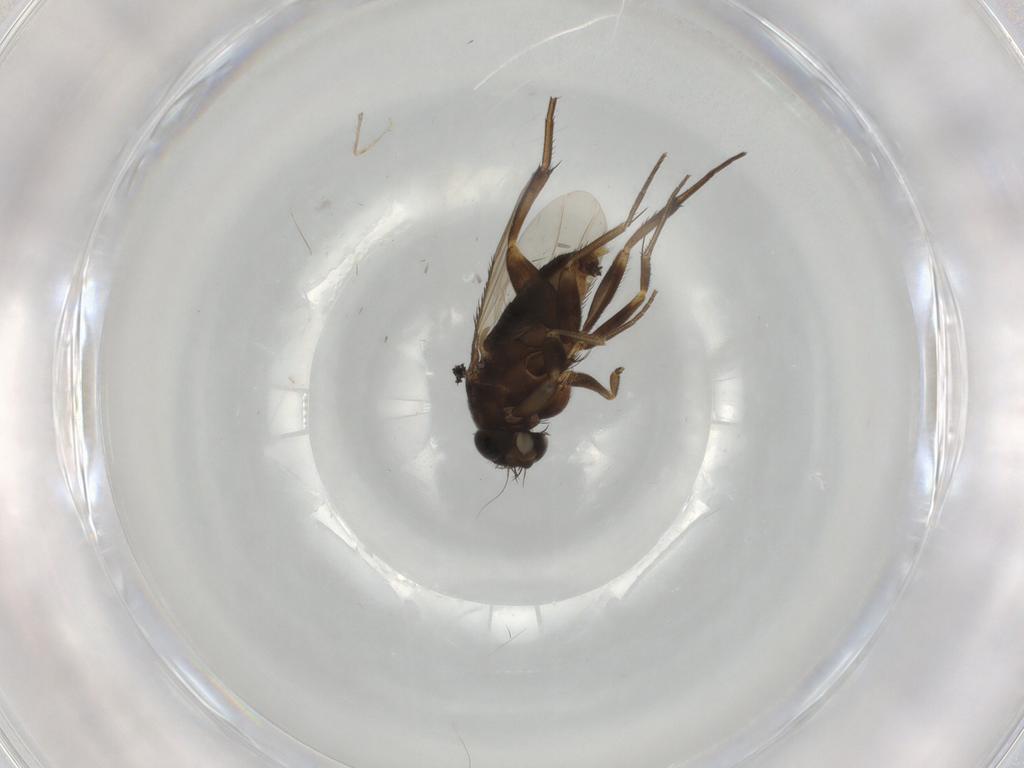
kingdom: Animalia
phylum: Arthropoda
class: Insecta
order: Diptera
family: Phoridae
